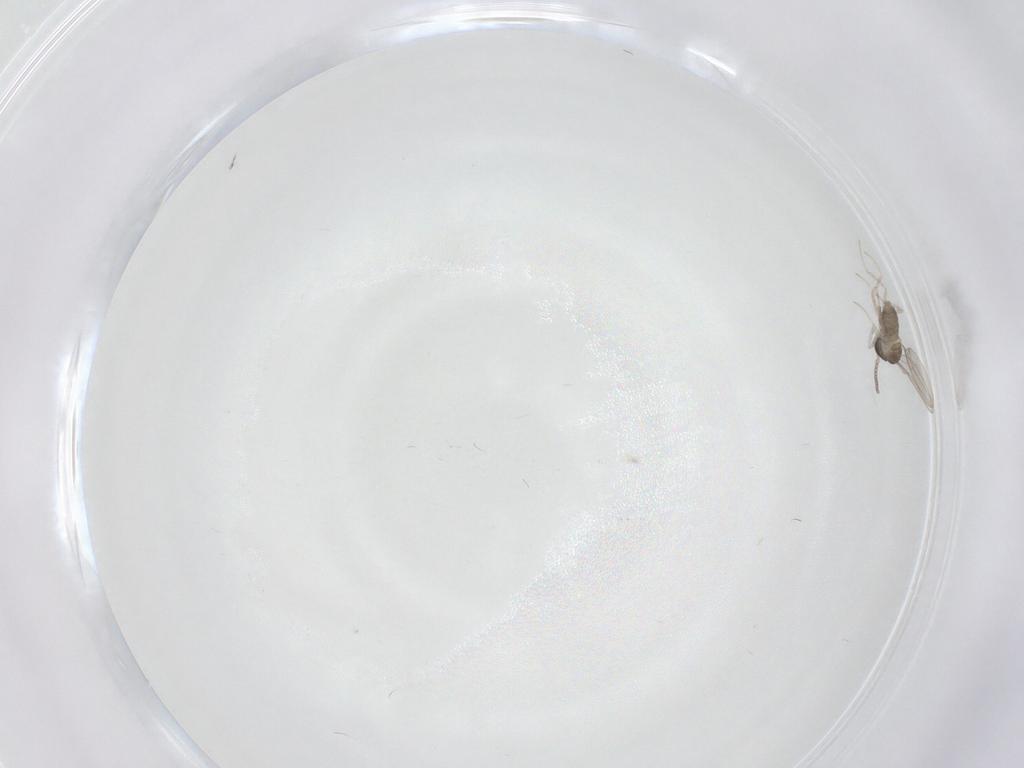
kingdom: Animalia
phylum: Arthropoda
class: Insecta
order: Diptera
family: Cecidomyiidae
